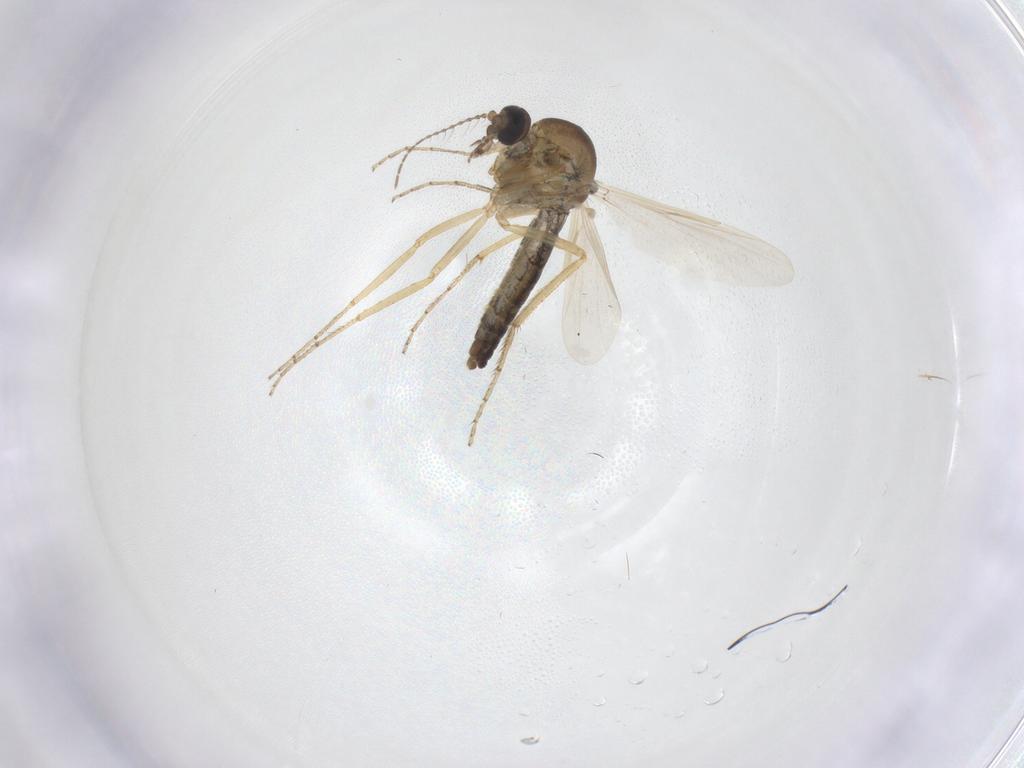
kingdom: Animalia
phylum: Arthropoda
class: Insecta
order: Diptera
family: Ceratopogonidae
